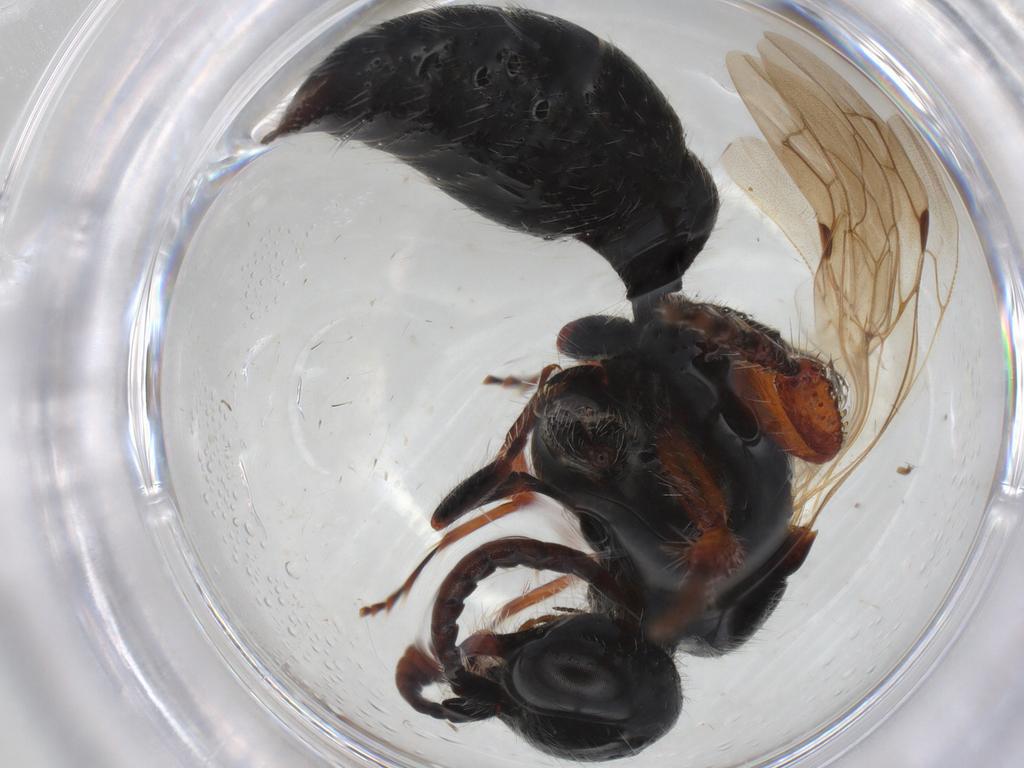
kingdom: Animalia
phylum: Arthropoda
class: Insecta
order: Hymenoptera
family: Tiphiidae
